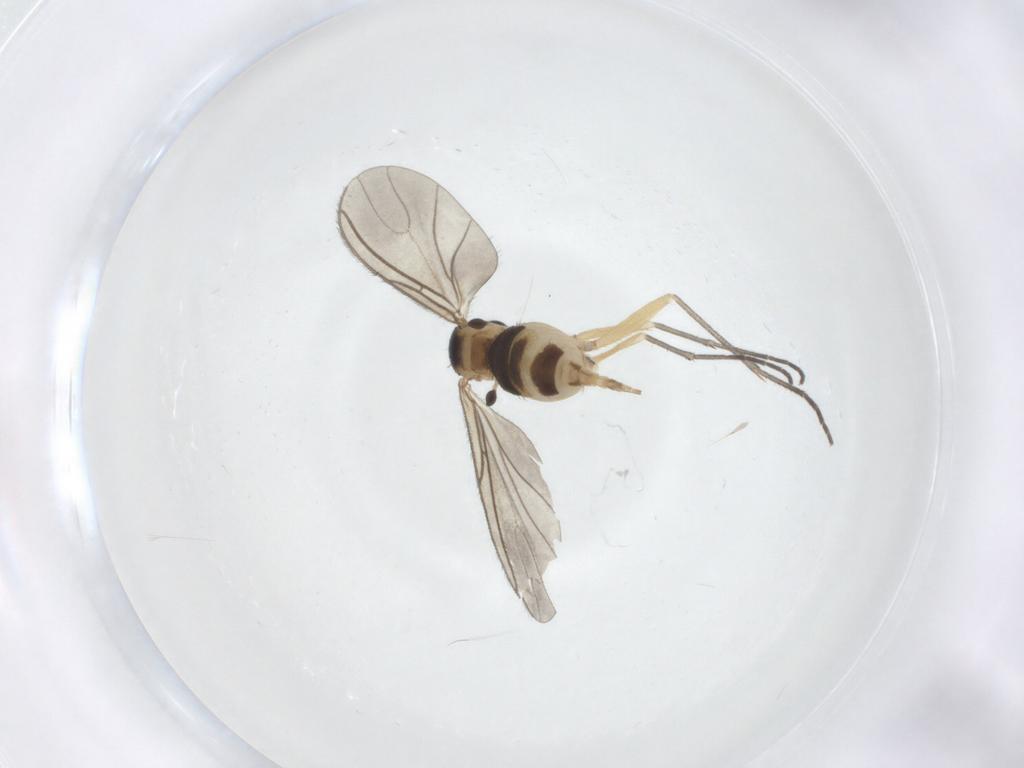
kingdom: Animalia
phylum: Arthropoda
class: Insecta
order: Diptera
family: Sciaridae
